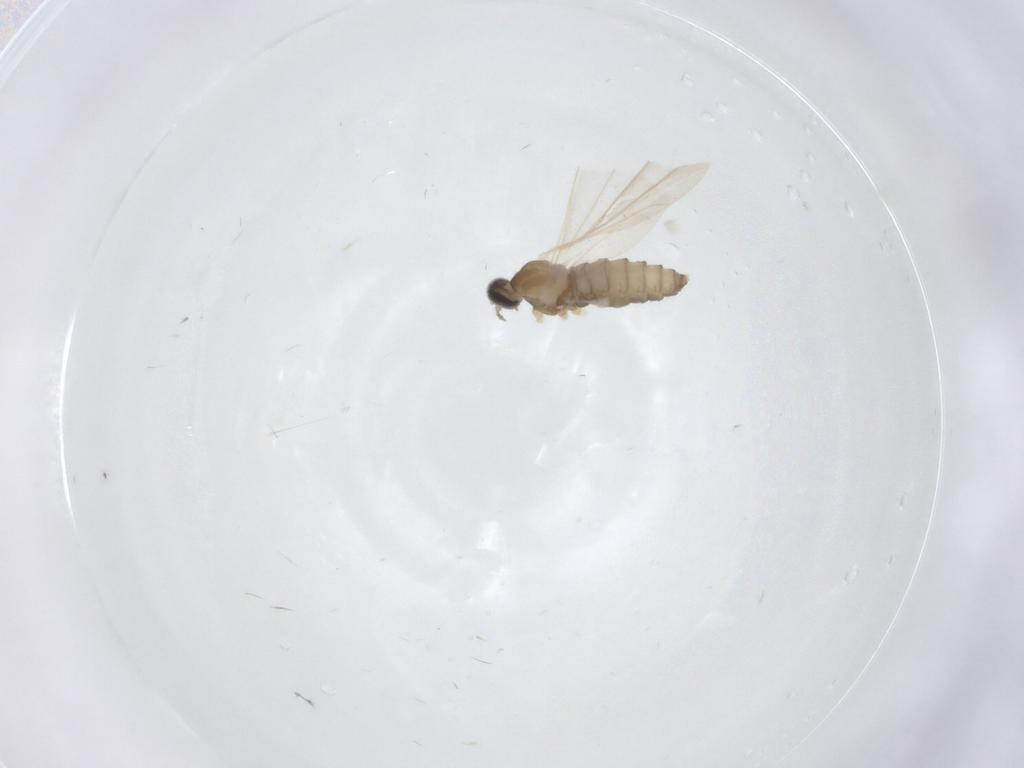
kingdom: Animalia
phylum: Arthropoda
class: Insecta
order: Diptera
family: Cecidomyiidae
